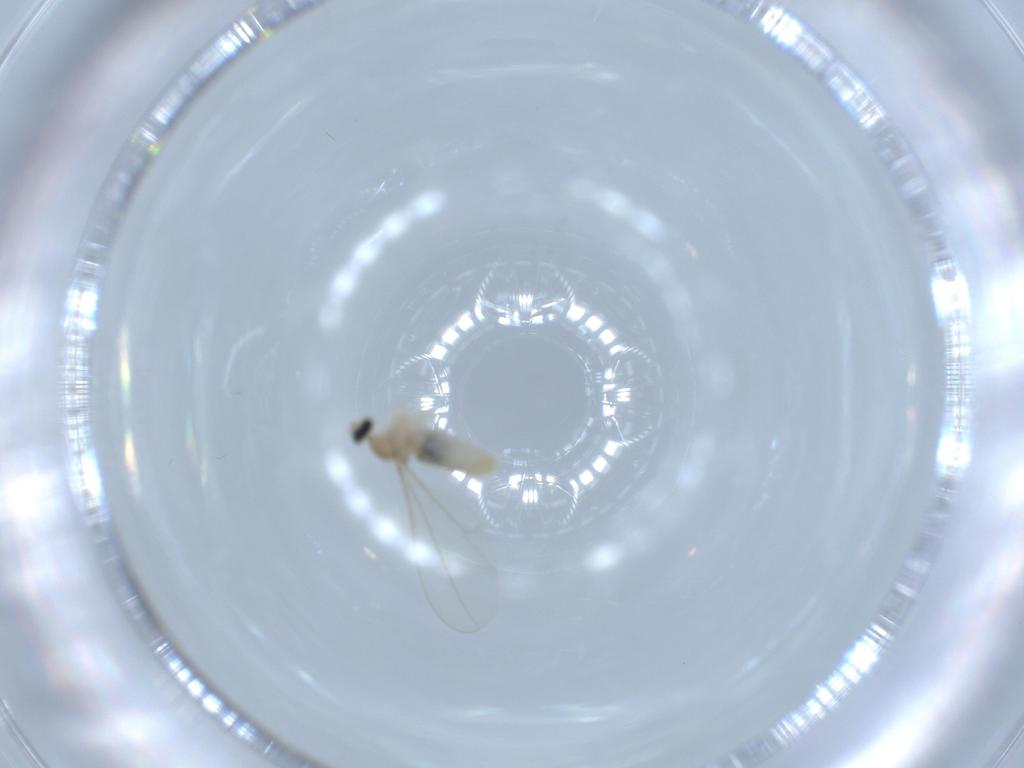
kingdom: Animalia
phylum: Arthropoda
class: Insecta
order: Diptera
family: Cecidomyiidae
